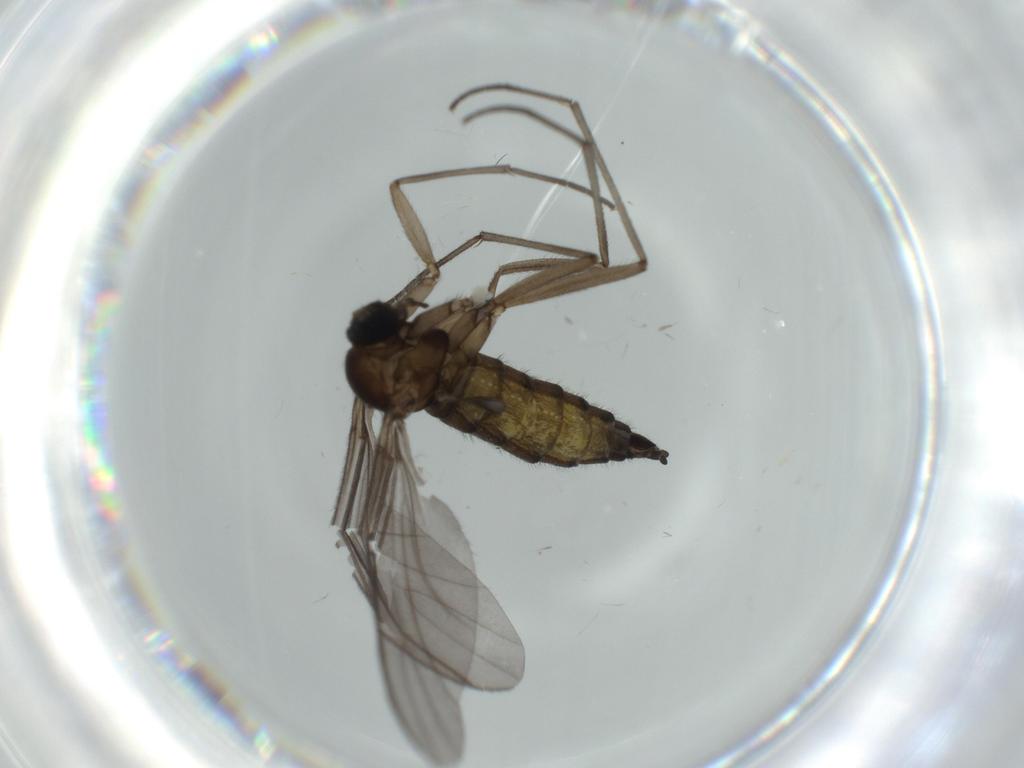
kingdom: Animalia
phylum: Arthropoda
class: Insecta
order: Diptera
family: Sciaridae
